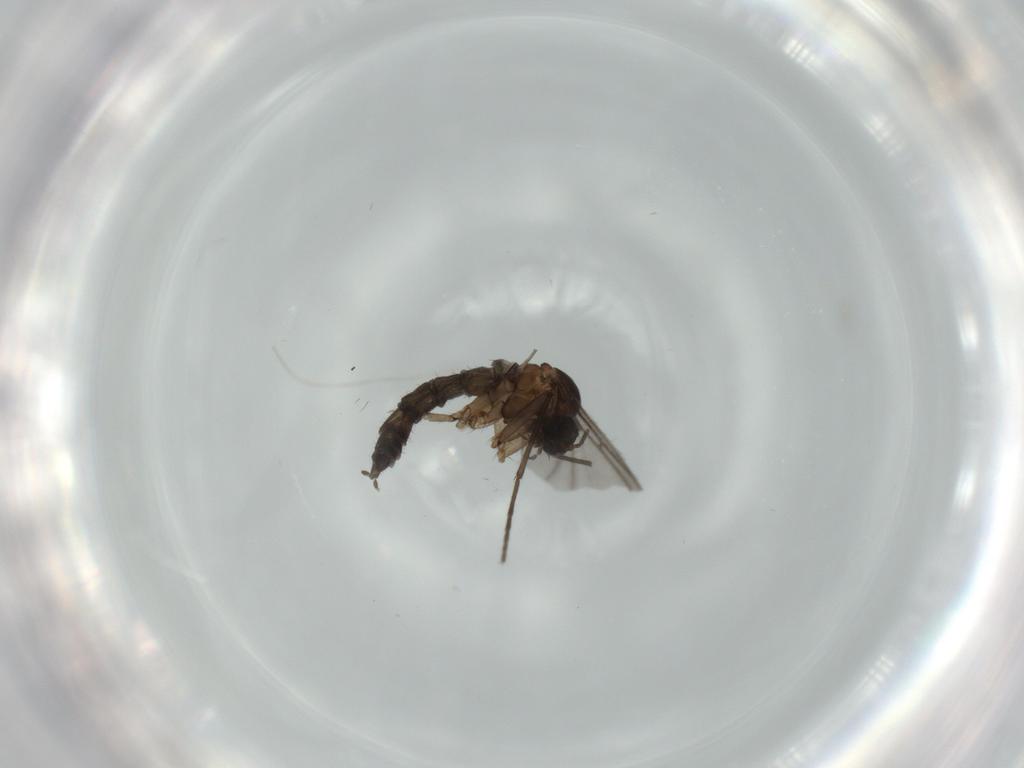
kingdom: Animalia
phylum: Arthropoda
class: Insecta
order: Diptera
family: Sciaridae
